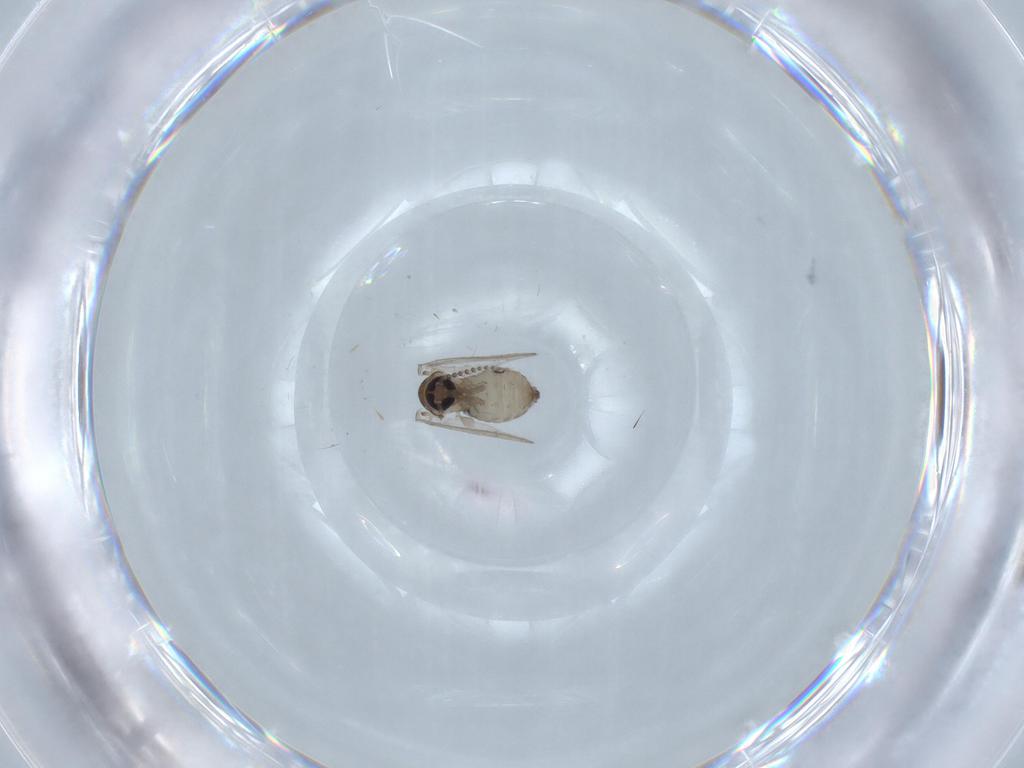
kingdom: Animalia
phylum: Arthropoda
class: Insecta
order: Diptera
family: Psychodidae
